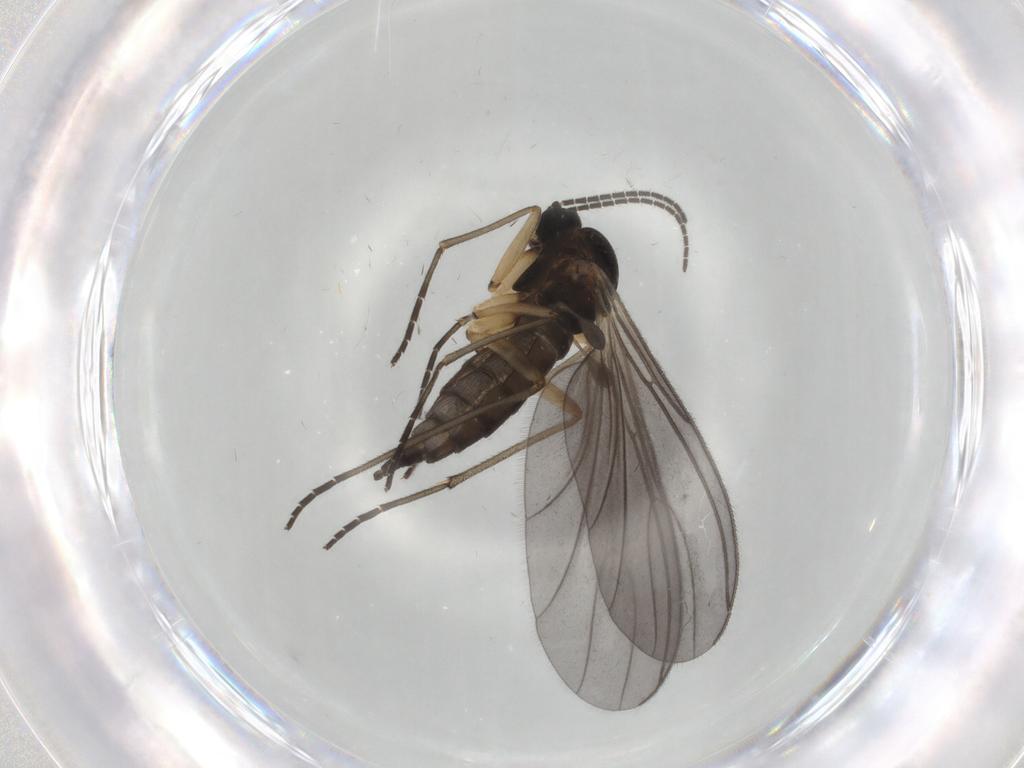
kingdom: Animalia
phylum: Arthropoda
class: Insecta
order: Diptera
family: Sciaridae
